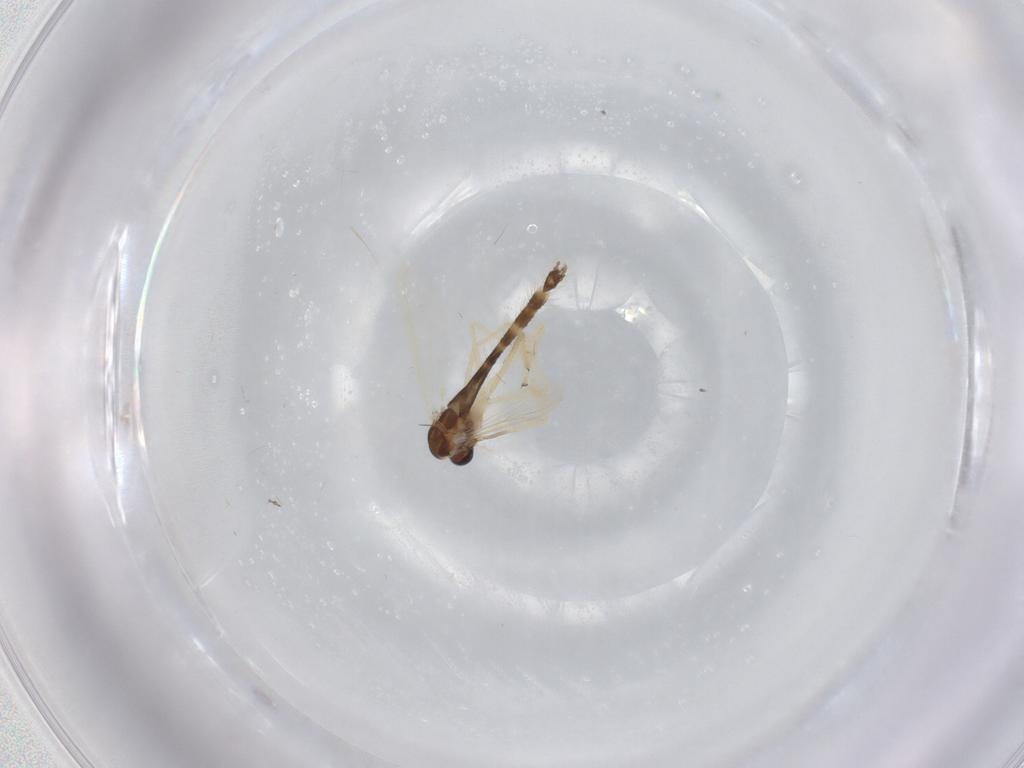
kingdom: Animalia
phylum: Arthropoda
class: Insecta
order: Diptera
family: Chironomidae
